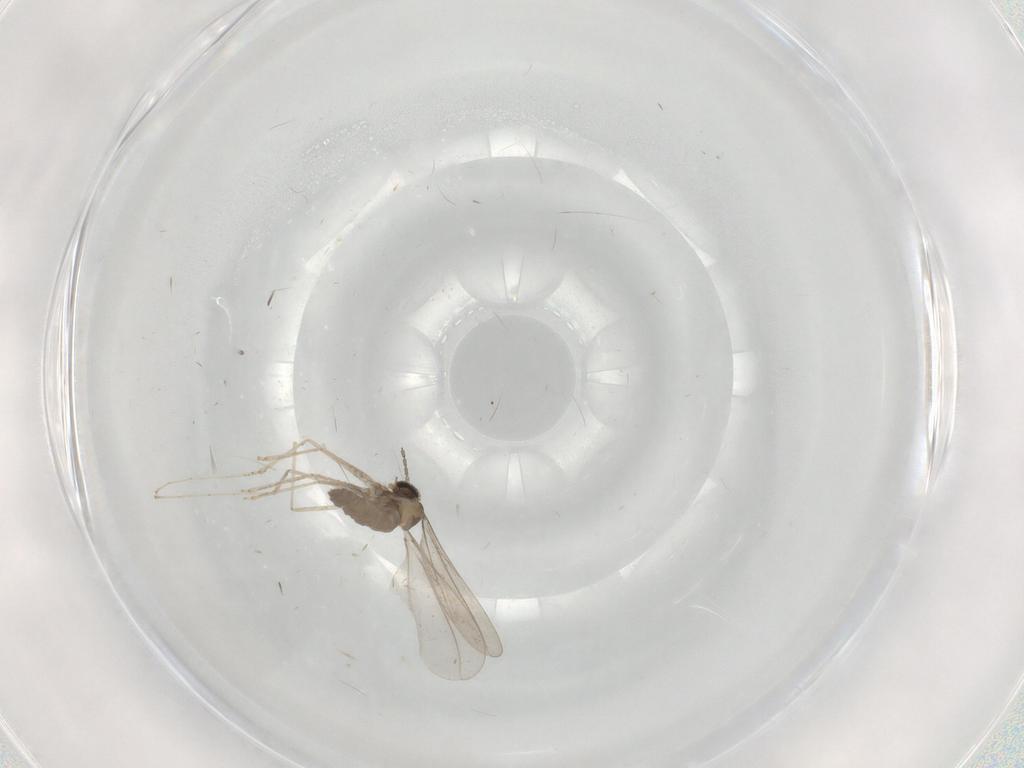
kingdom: Animalia
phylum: Arthropoda
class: Insecta
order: Diptera
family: Cecidomyiidae
